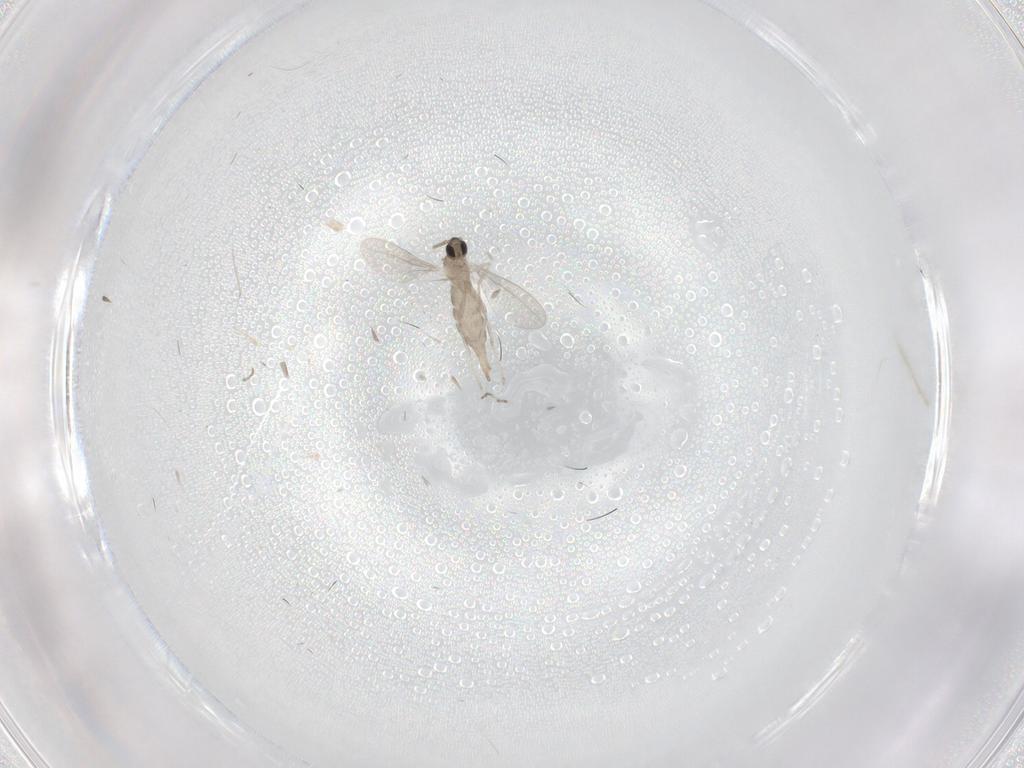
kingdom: Animalia
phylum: Arthropoda
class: Insecta
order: Diptera
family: Cecidomyiidae
